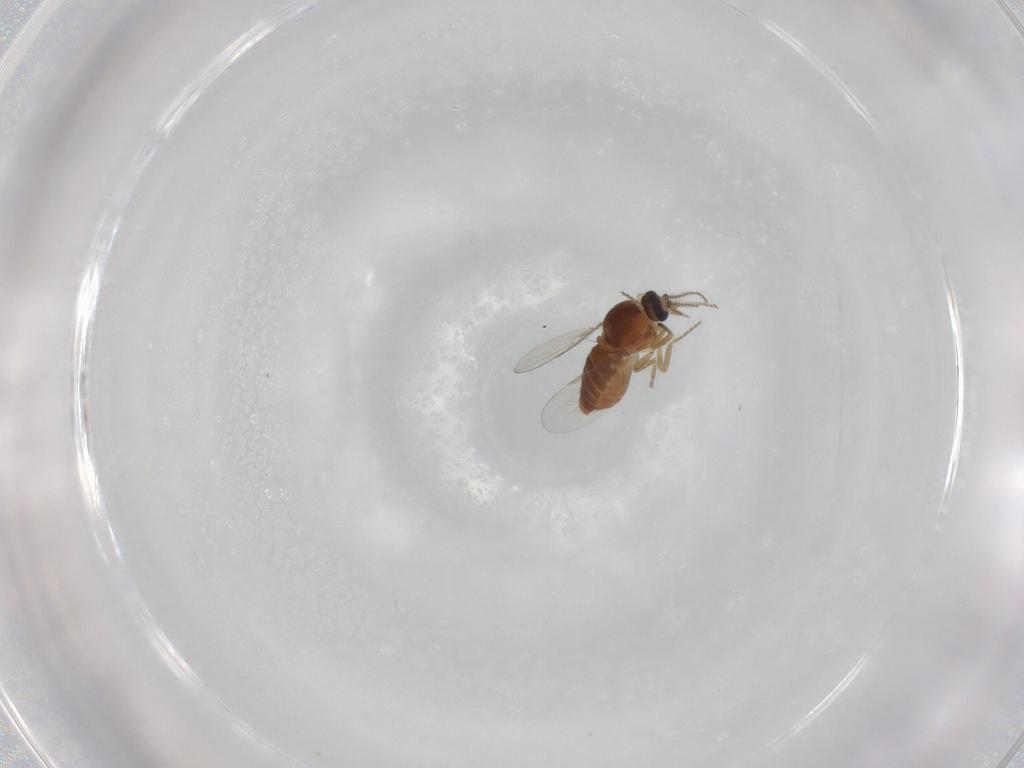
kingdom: Animalia
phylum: Arthropoda
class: Insecta
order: Diptera
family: Ceratopogonidae
